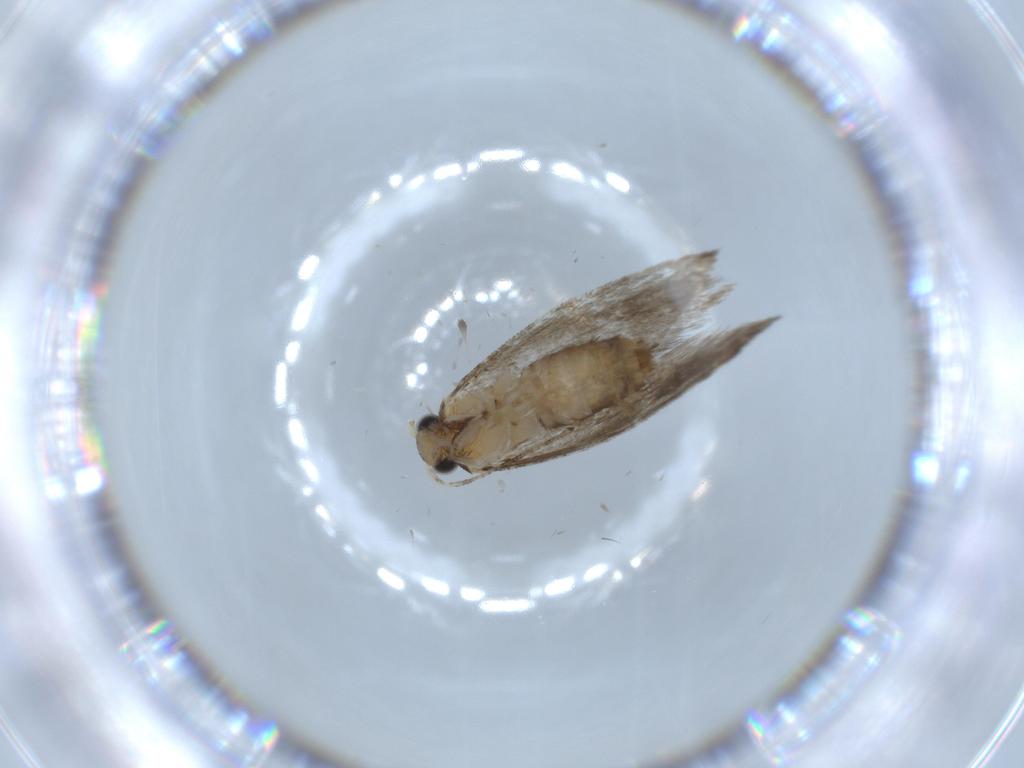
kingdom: Animalia
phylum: Arthropoda
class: Insecta
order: Lepidoptera
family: Tineidae
